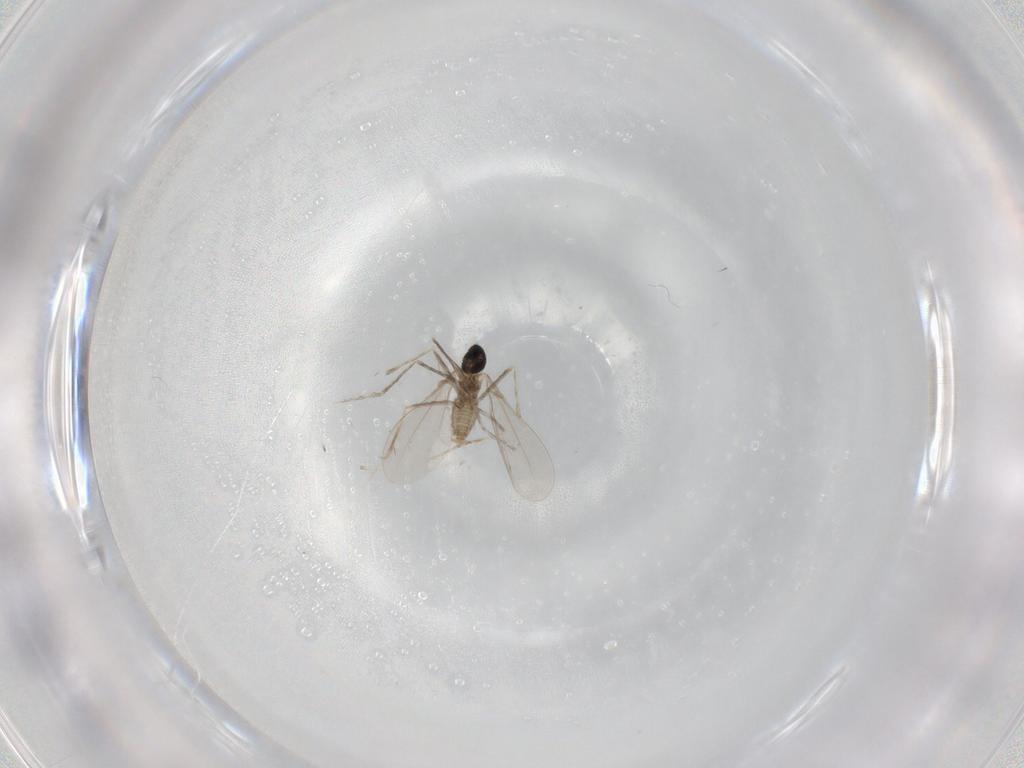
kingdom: Animalia
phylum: Arthropoda
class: Insecta
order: Diptera
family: Cecidomyiidae
